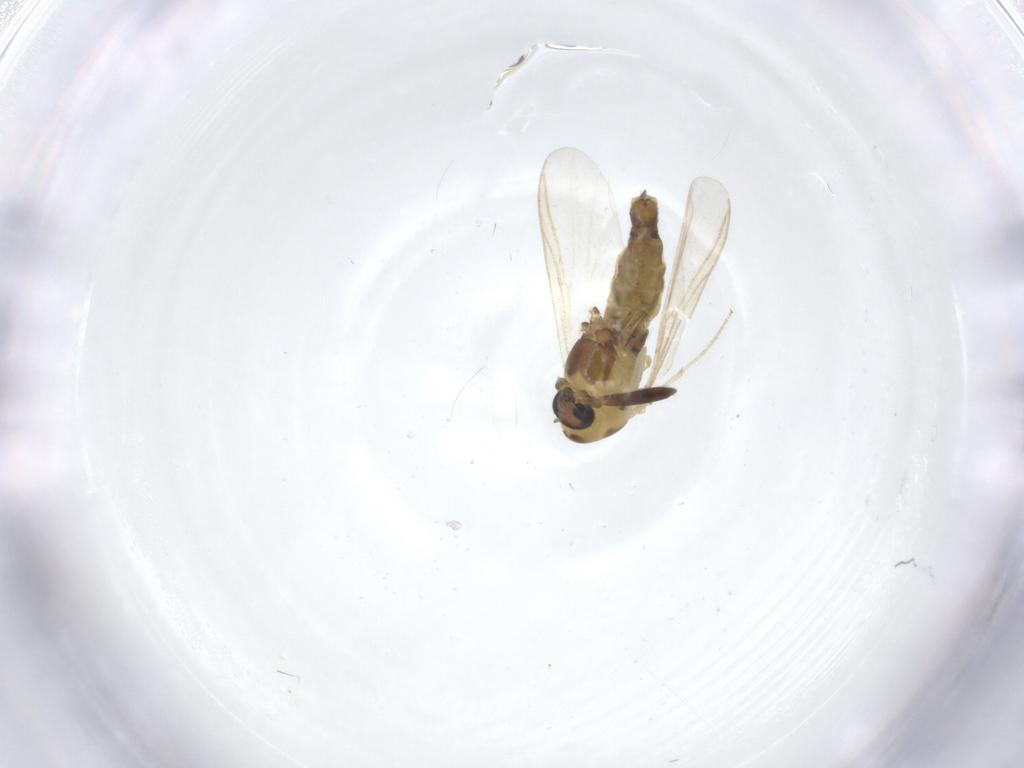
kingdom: Animalia
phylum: Arthropoda
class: Insecta
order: Diptera
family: Chironomidae
